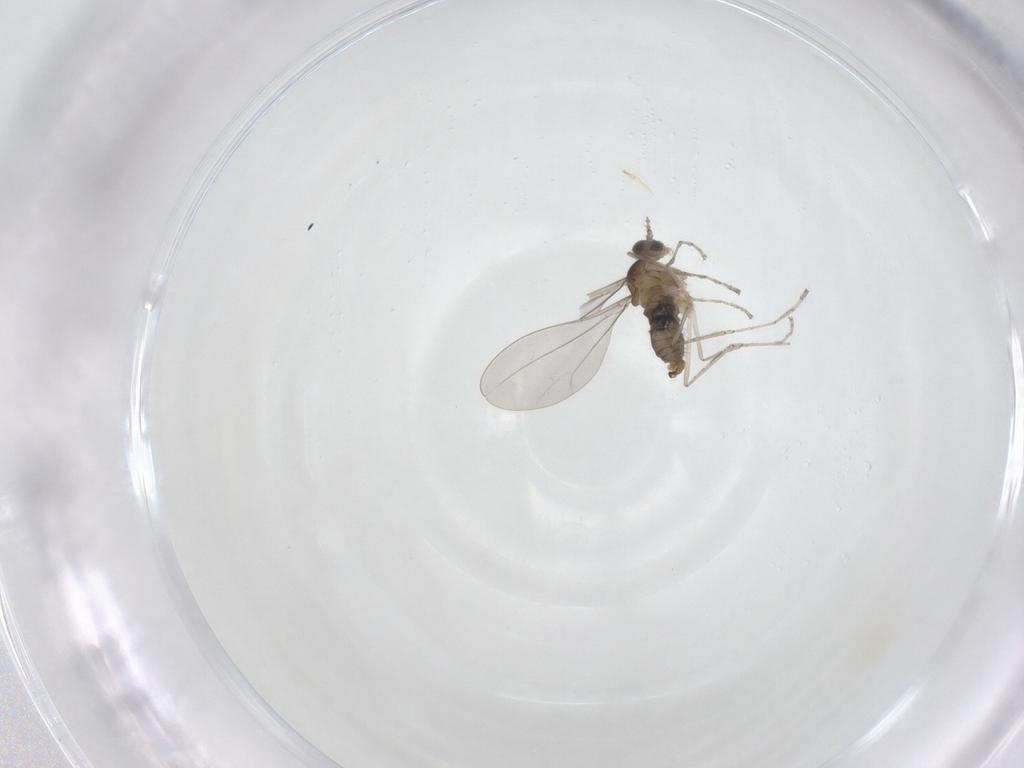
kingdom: Animalia
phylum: Arthropoda
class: Insecta
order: Diptera
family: Cecidomyiidae
